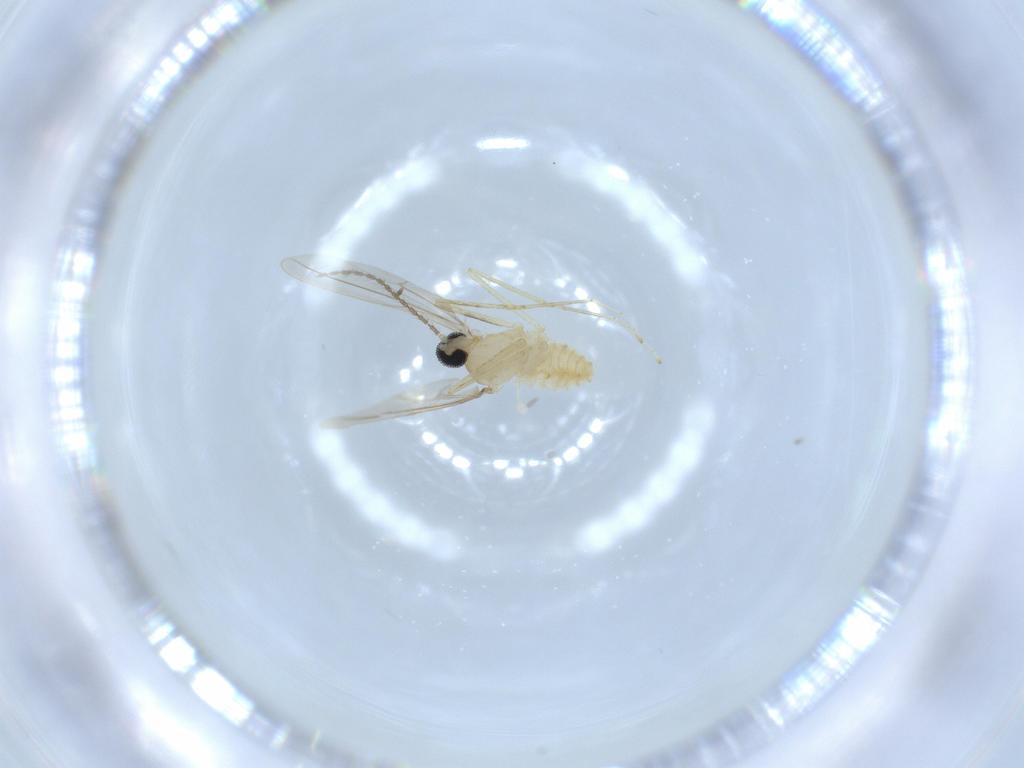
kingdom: Animalia
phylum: Arthropoda
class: Insecta
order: Diptera
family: Cecidomyiidae
